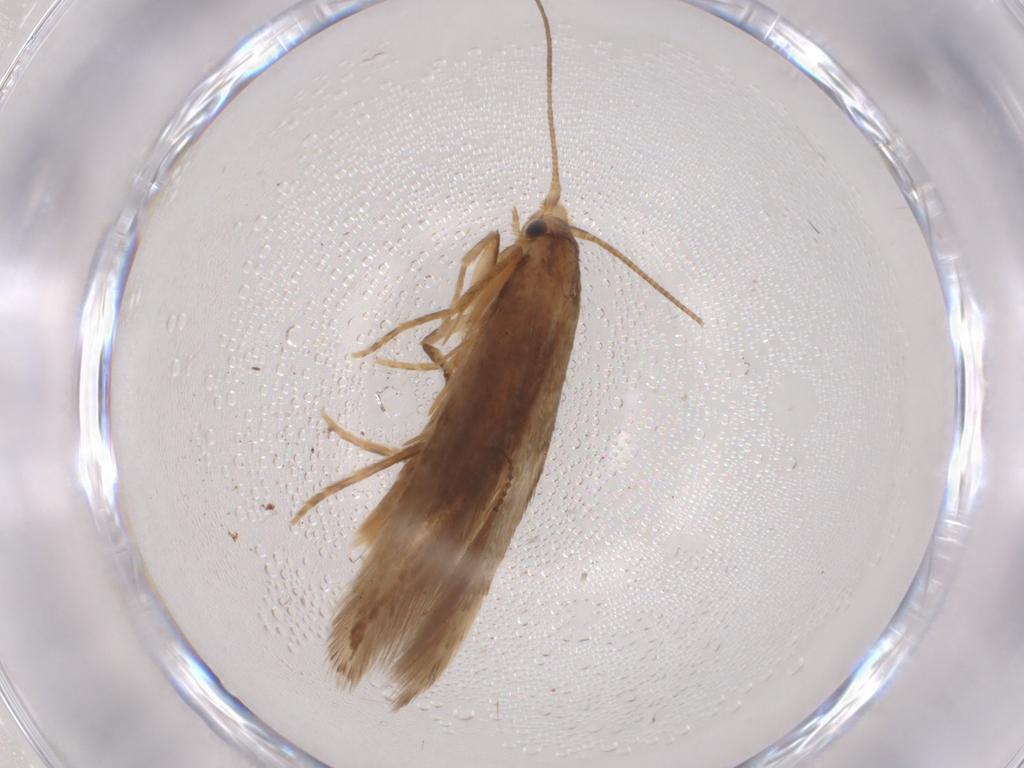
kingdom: Animalia
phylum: Arthropoda
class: Insecta
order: Lepidoptera
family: Tineidae
